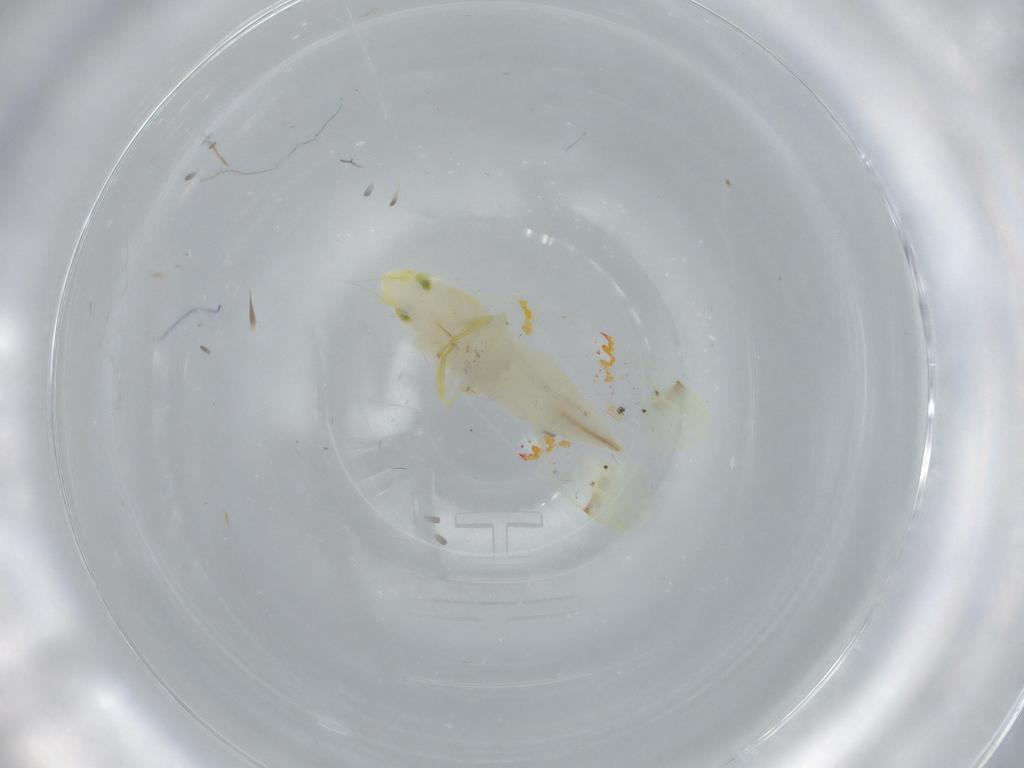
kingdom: Animalia
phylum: Arthropoda
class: Insecta
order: Hemiptera
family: Cicadellidae
